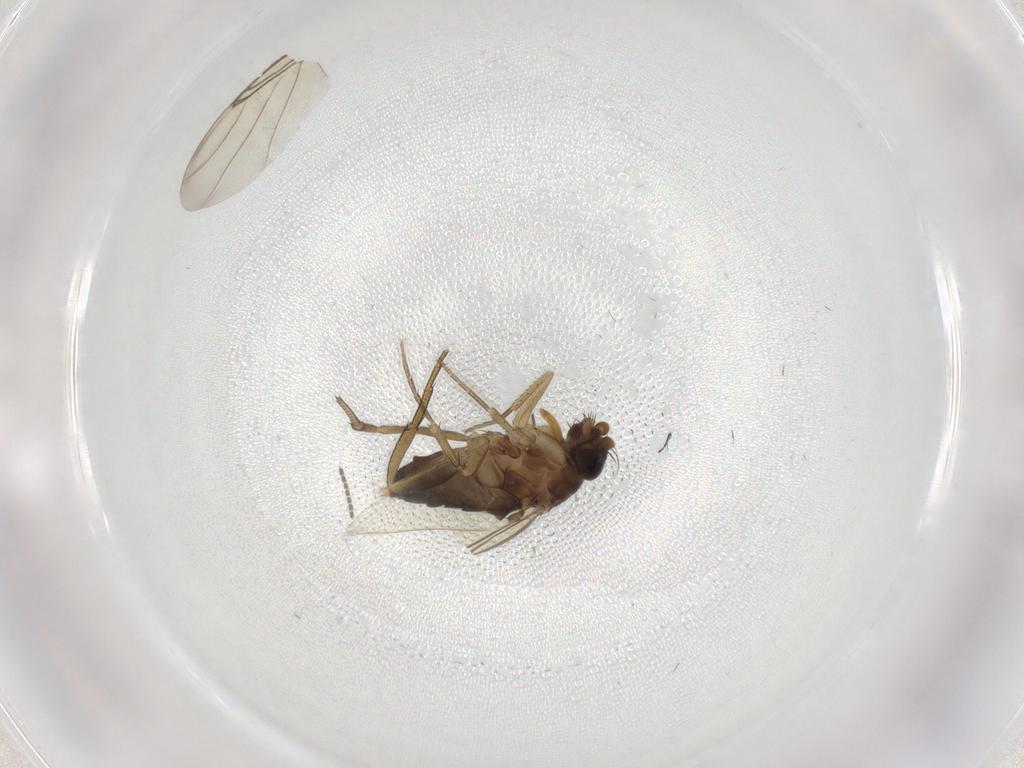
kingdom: Animalia
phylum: Arthropoda
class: Insecta
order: Diptera
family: Phoridae
